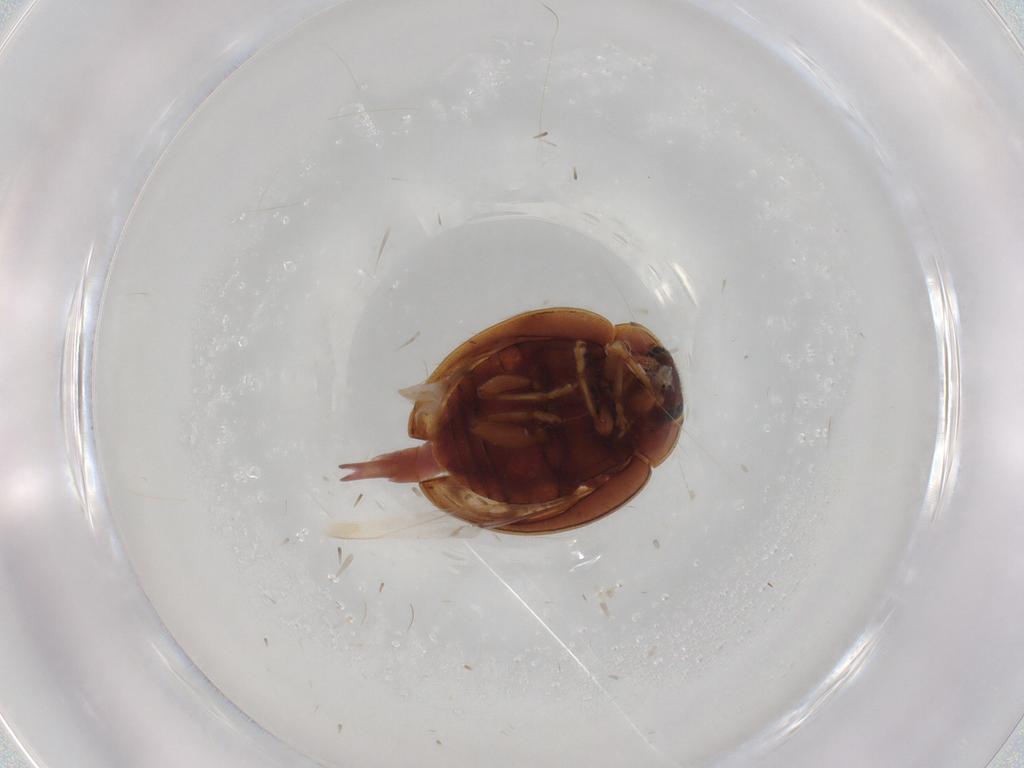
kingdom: Animalia
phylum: Arthropoda
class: Insecta
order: Coleoptera
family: Coccinellidae
